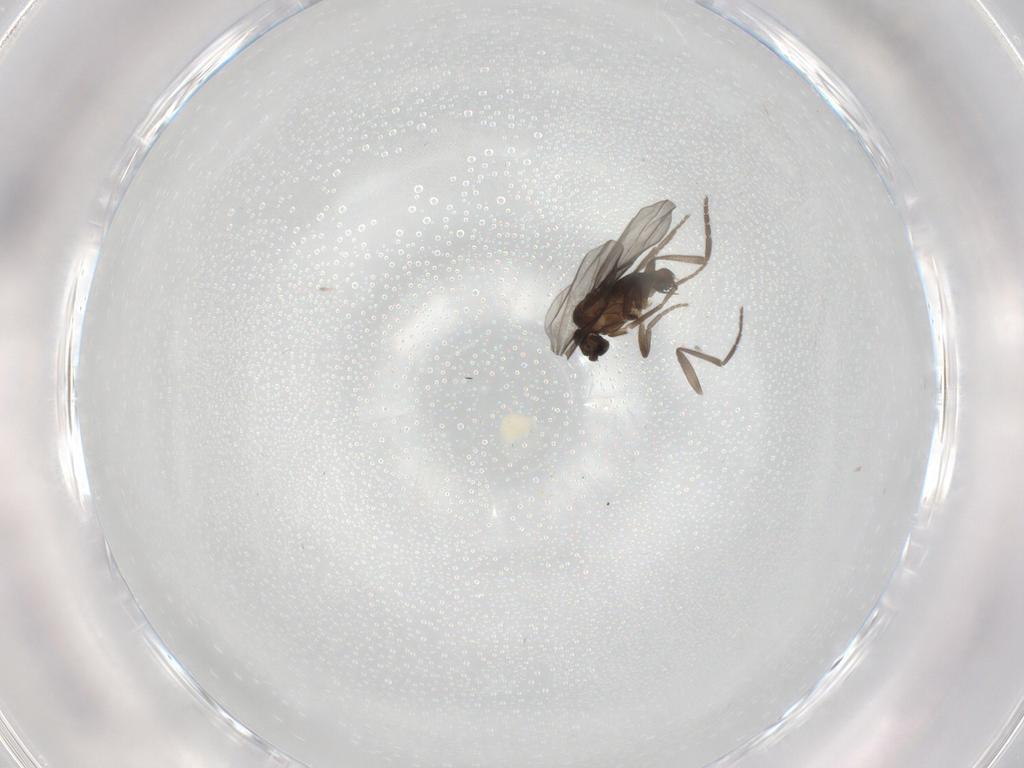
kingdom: Animalia
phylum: Arthropoda
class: Insecta
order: Diptera
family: Phoridae
